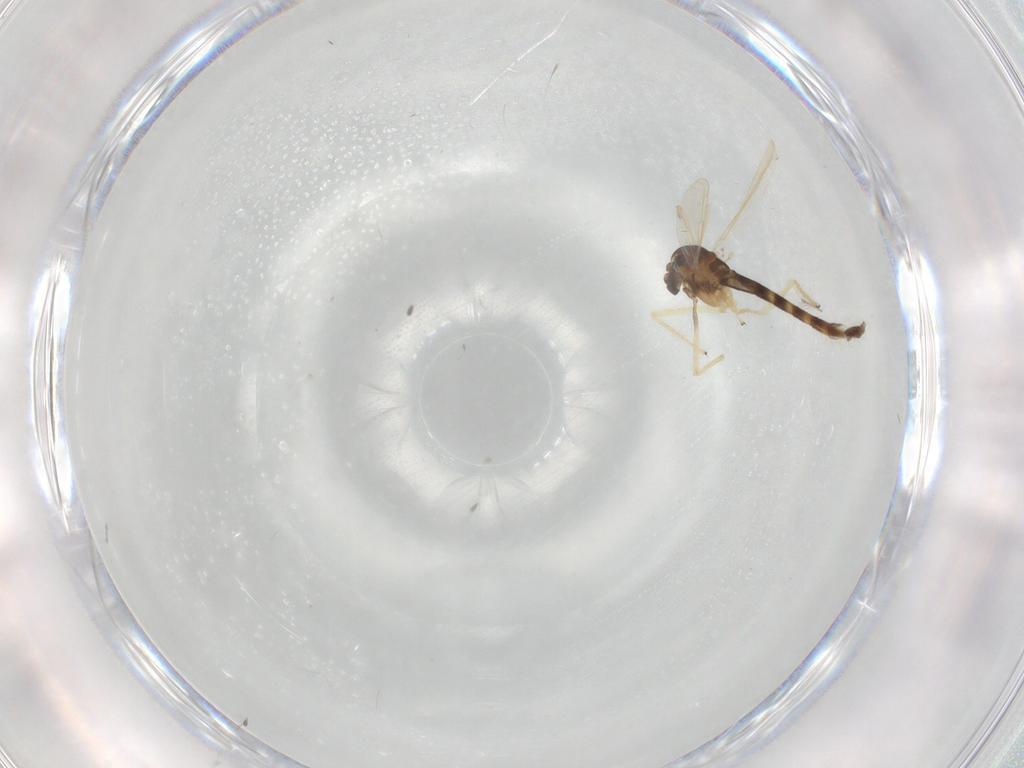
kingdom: Animalia
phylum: Arthropoda
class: Insecta
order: Diptera
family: Chironomidae
